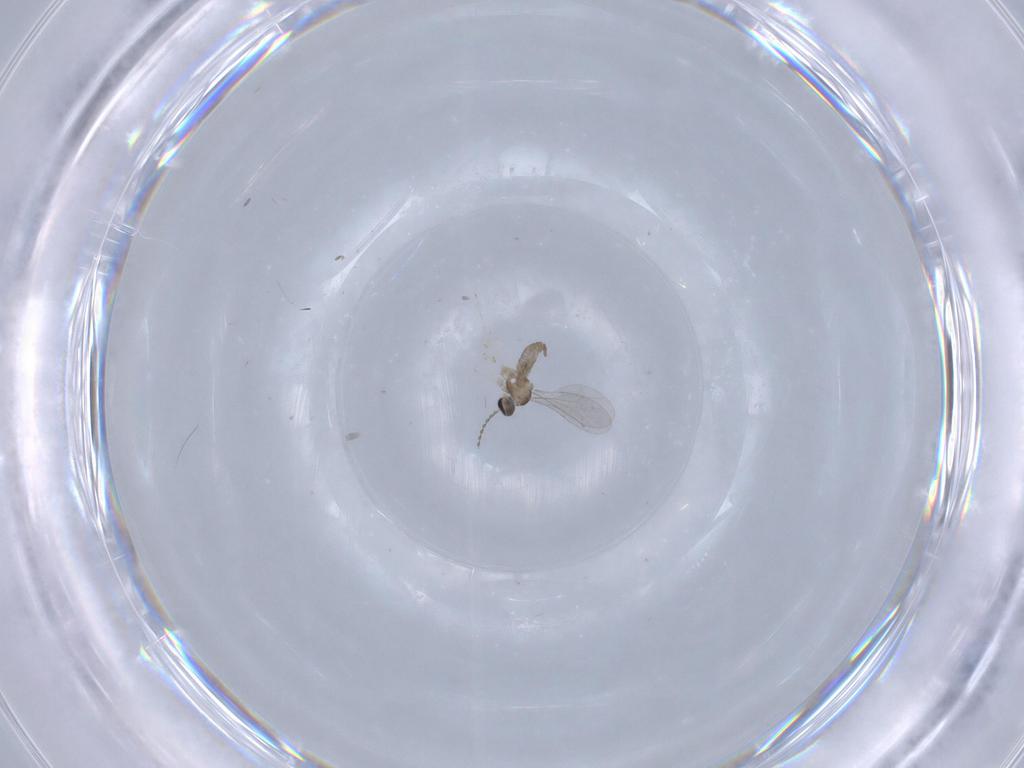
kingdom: Animalia
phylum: Arthropoda
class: Insecta
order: Diptera
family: Cecidomyiidae
